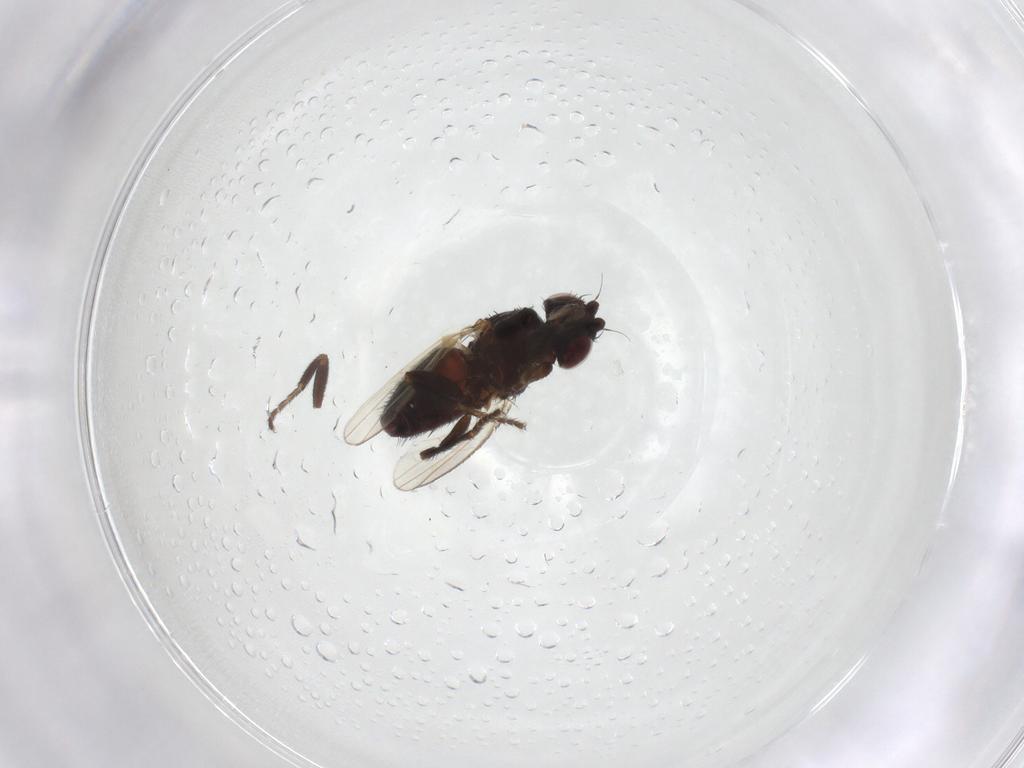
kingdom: Animalia
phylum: Arthropoda
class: Insecta
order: Diptera
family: Milichiidae
